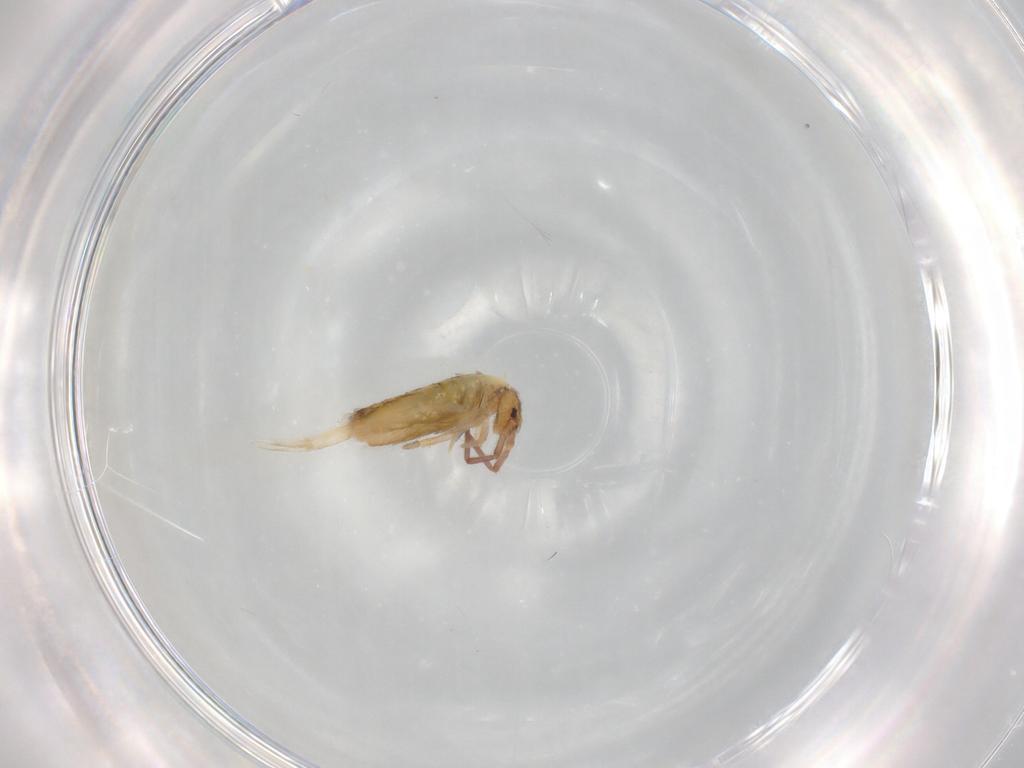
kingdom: Animalia
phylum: Arthropoda
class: Collembola
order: Entomobryomorpha
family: Entomobryidae
